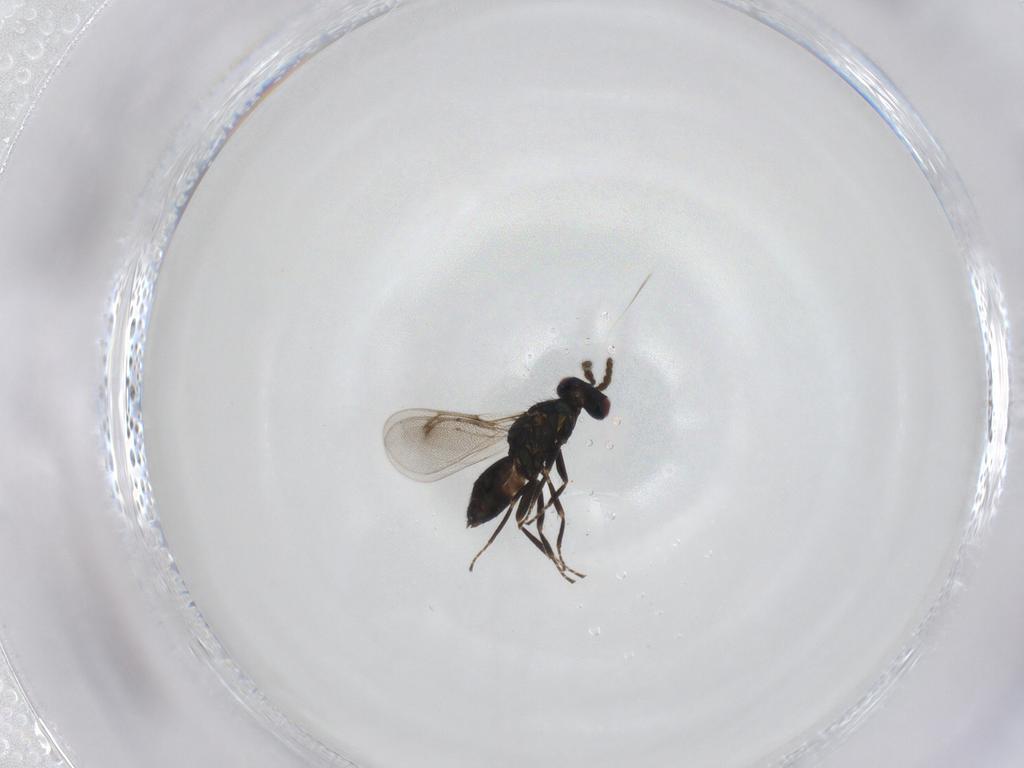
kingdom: Animalia
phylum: Arthropoda
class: Insecta
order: Hymenoptera
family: Eulophidae
